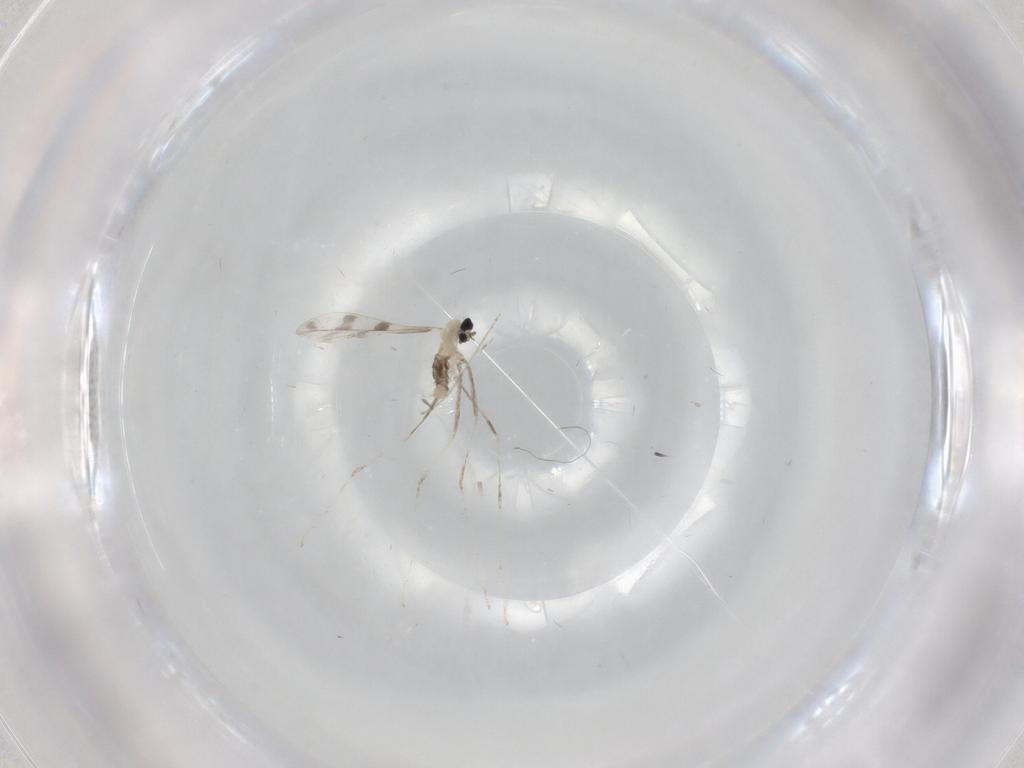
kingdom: Animalia
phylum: Arthropoda
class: Insecta
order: Diptera
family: Cecidomyiidae
